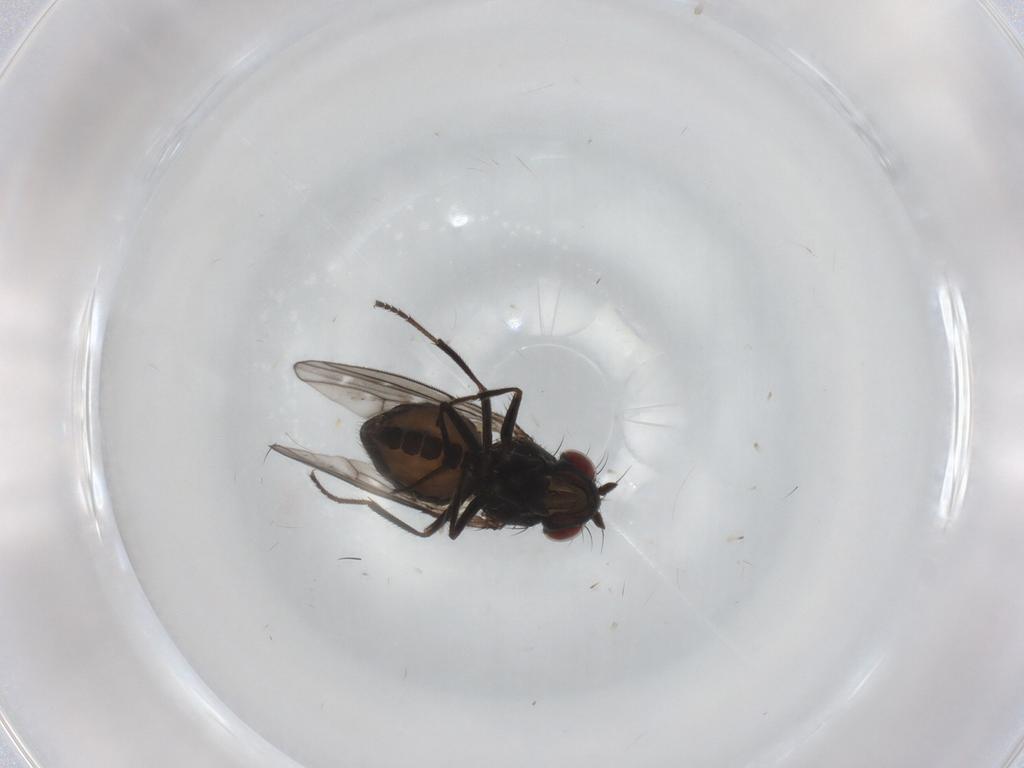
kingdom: Animalia
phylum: Arthropoda
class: Insecta
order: Diptera
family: Ephydridae
